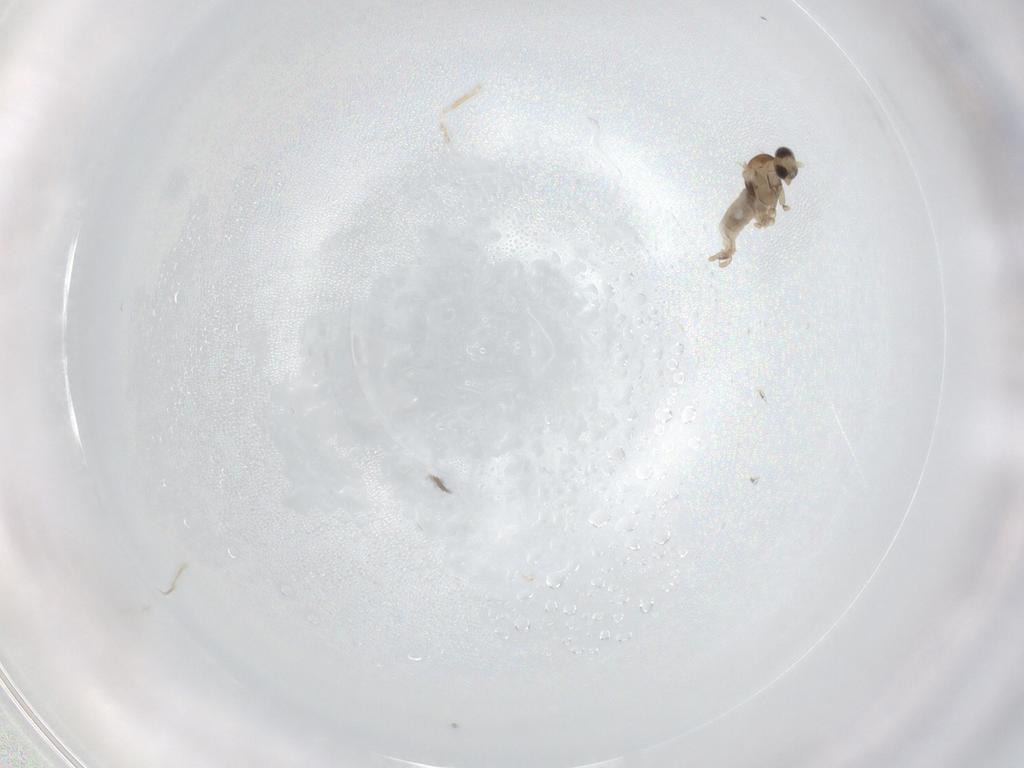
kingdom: Animalia
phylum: Arthropoda
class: Insecta
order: Diptera
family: Cecidomyiidae
